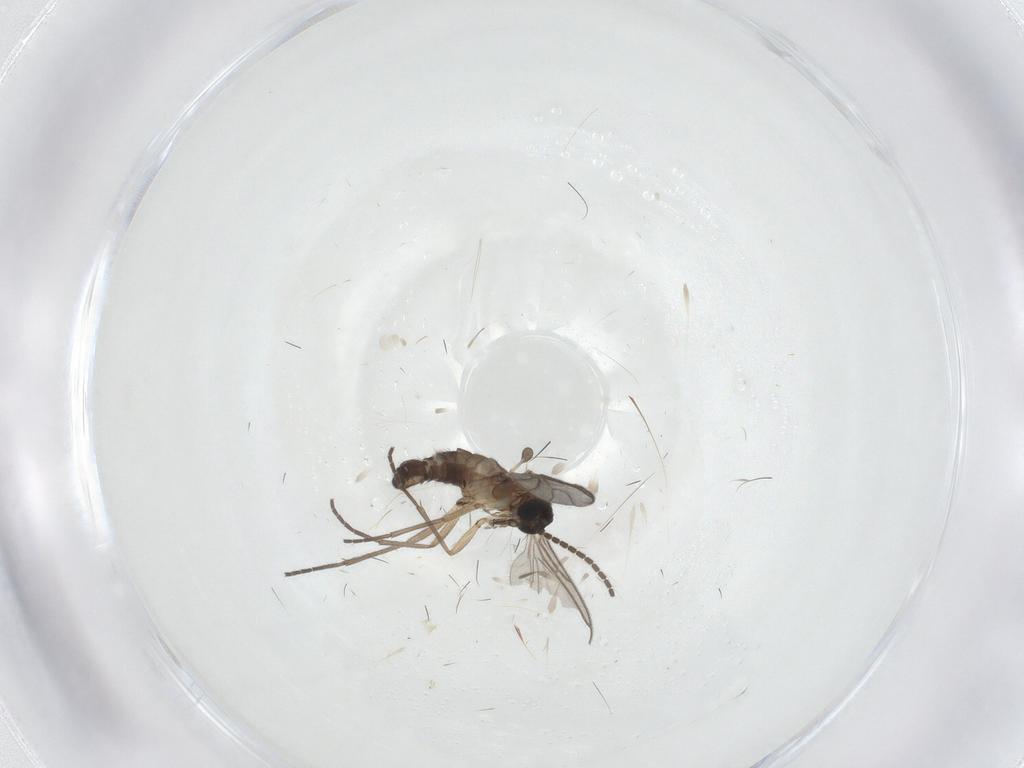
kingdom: Animalia
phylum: Arthropoda
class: Insecta
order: Diptera
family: Sciaridae
